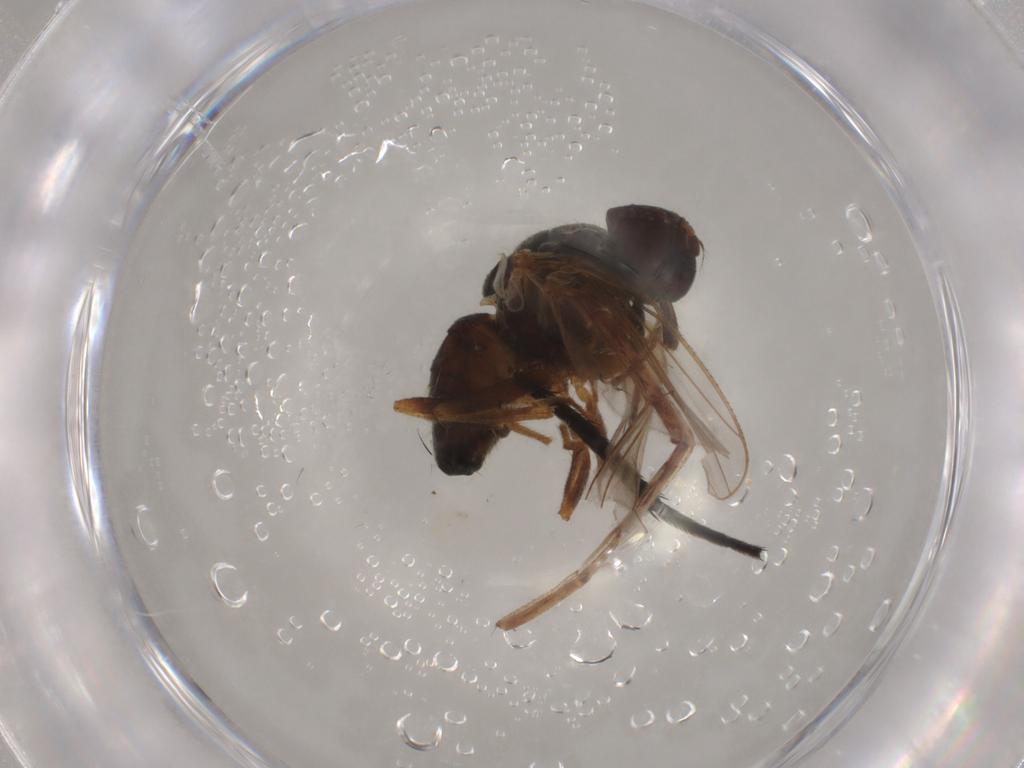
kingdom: Animalia
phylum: Arthropoda
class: Insecta
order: Diptera
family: Muscidae
